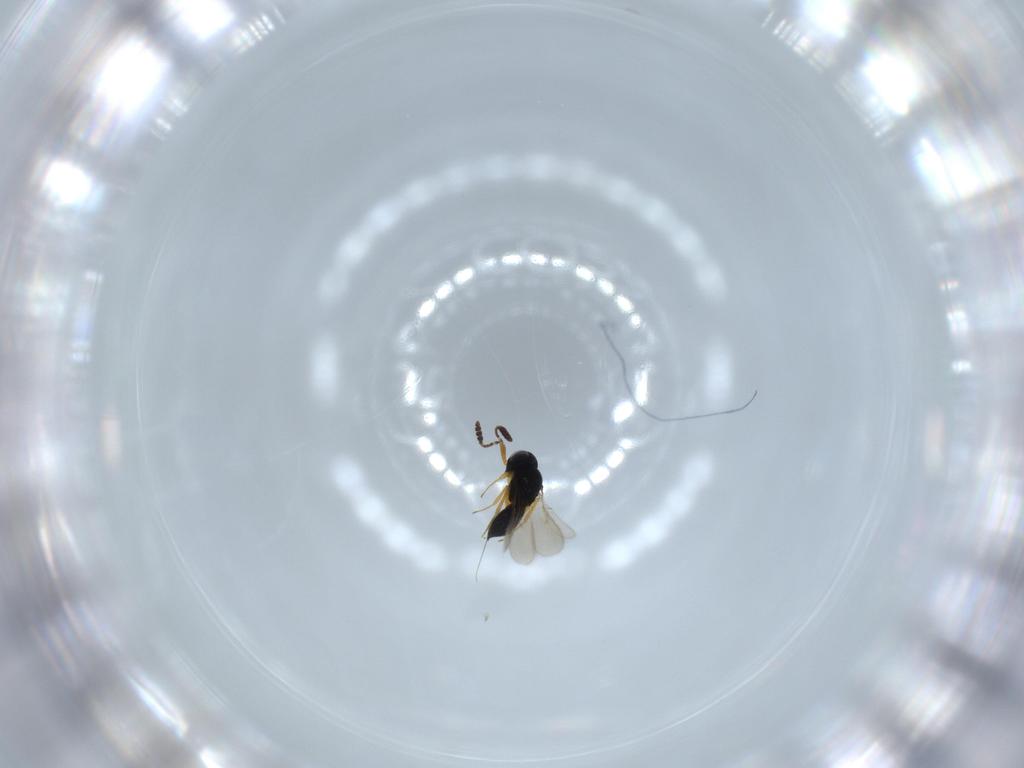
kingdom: Animalia
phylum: Arthropoda
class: Insecta
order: Hymenoptera
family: Scelionidae
